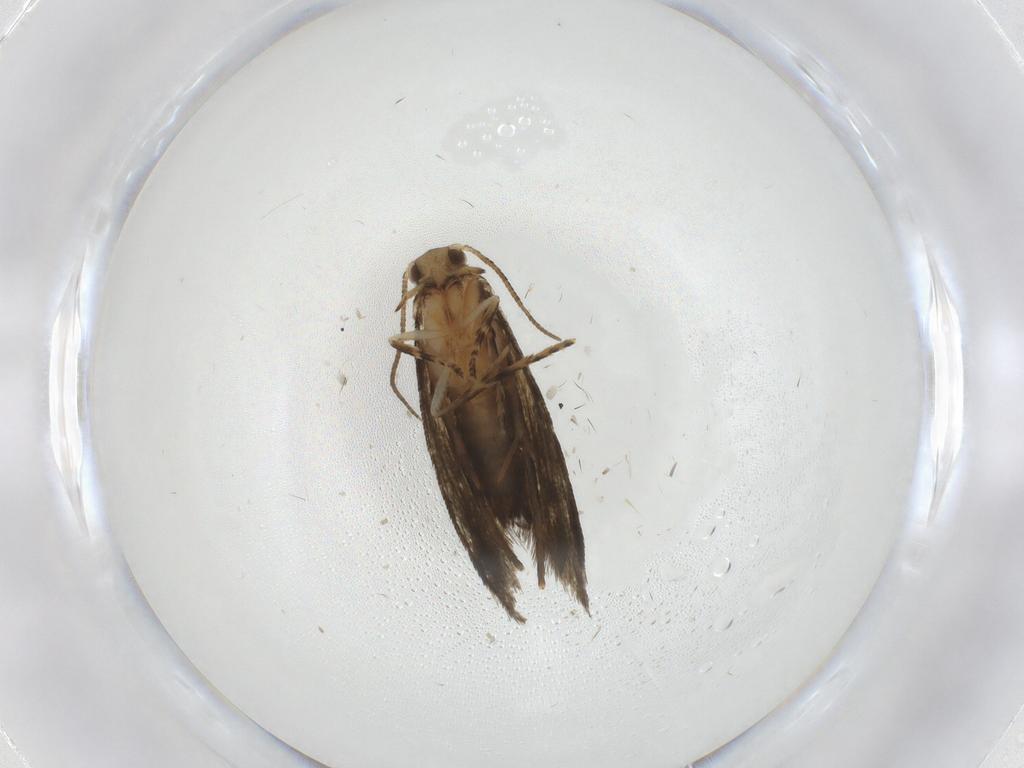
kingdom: Animalia
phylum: Arthropoda
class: Insecta
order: Lepidoptera
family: Crambidae
